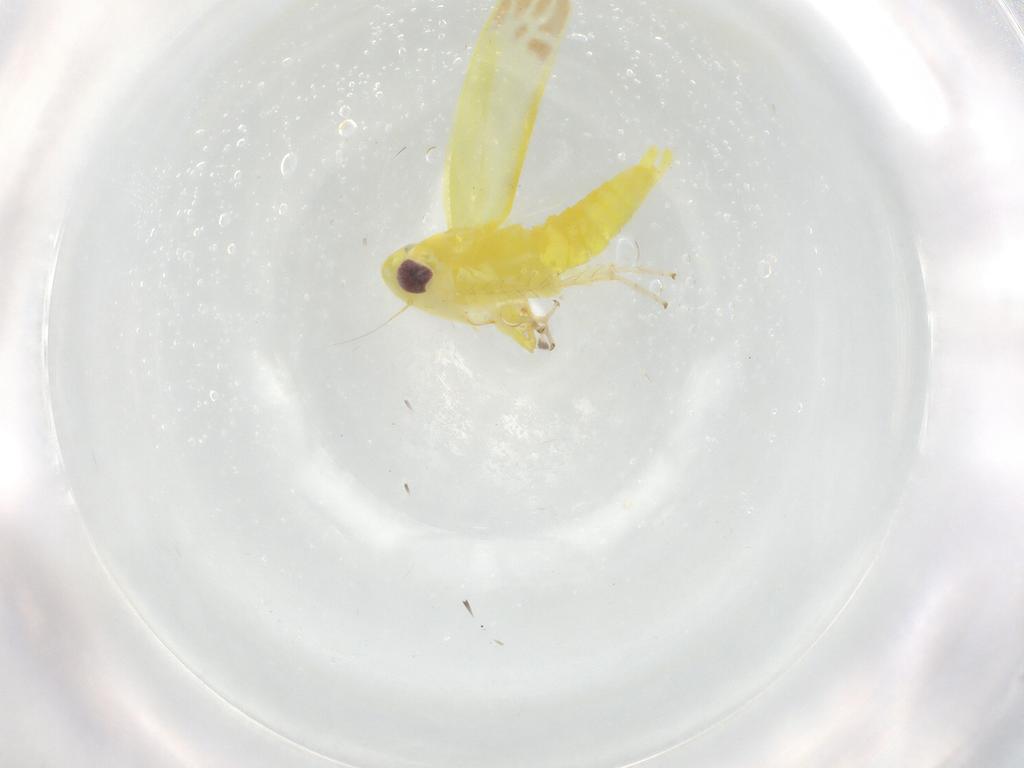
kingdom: Animalia
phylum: Arthropoda
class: Insecta
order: Hemiptera
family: Cicadellidae
